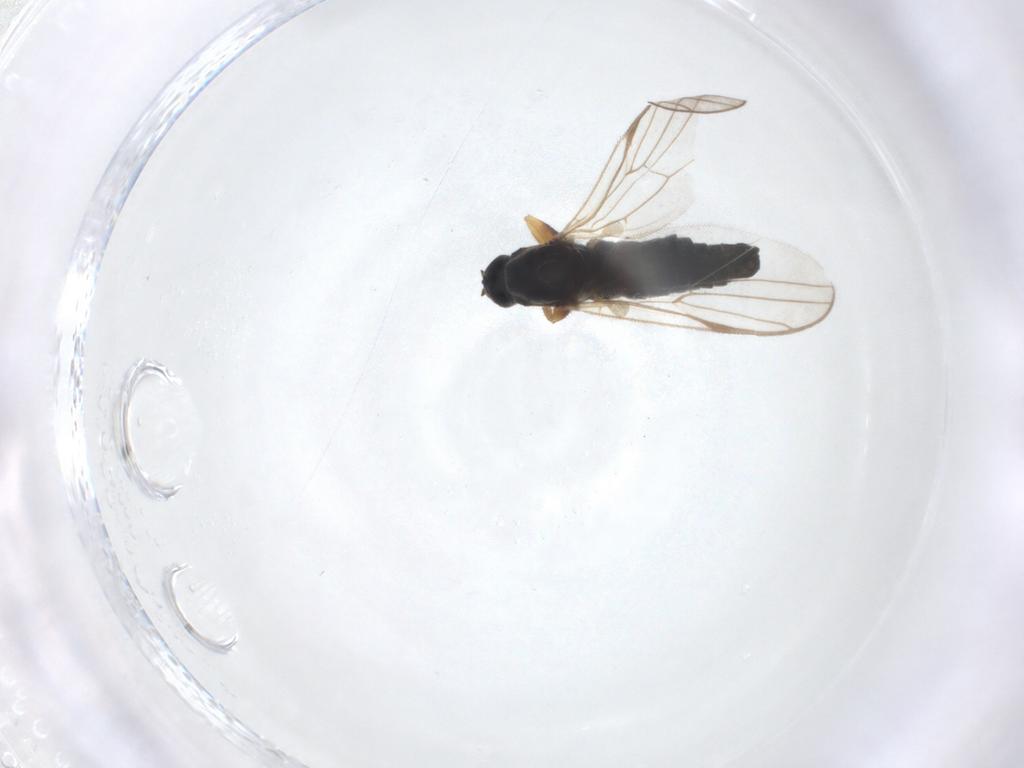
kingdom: Animalia
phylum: Arthropoda
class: Insecta
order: Diptera
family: Hybotidae
